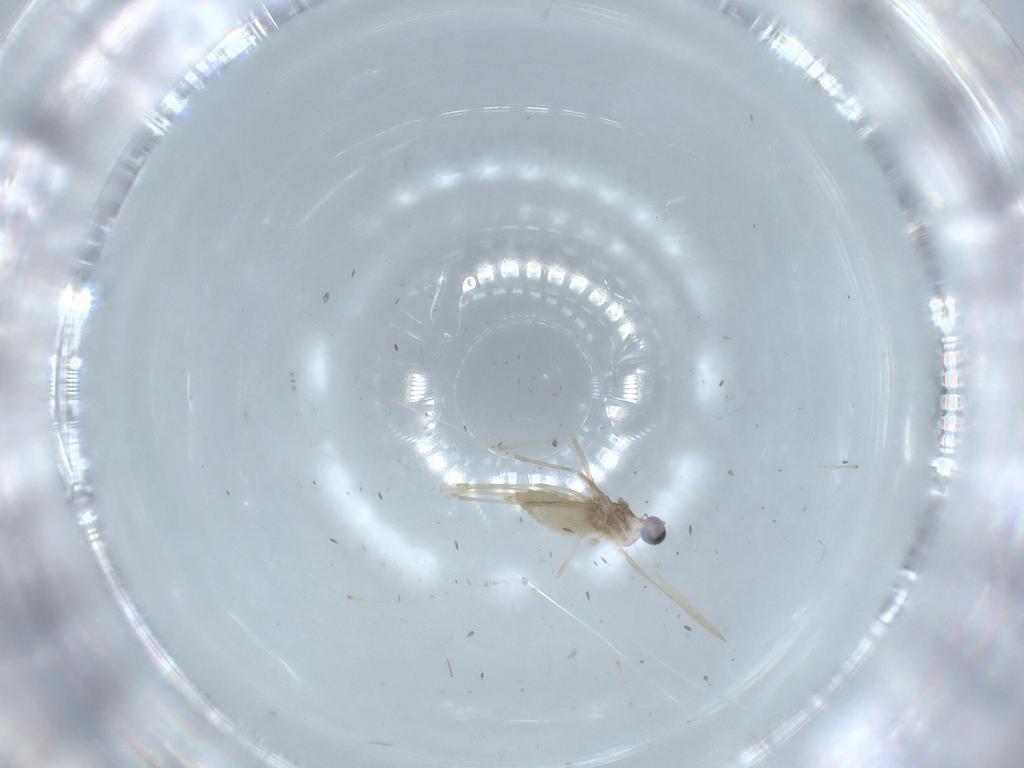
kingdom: Animalia
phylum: Arthropoda
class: Insecta
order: Diptera
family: Cecidomyiidae
